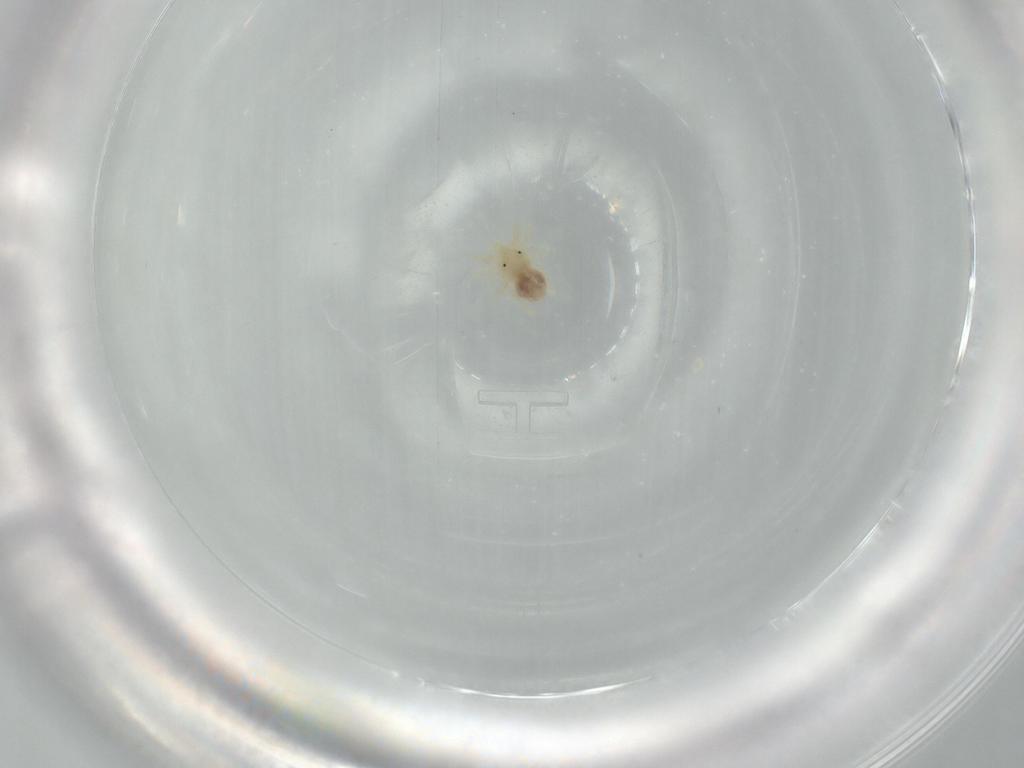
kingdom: Animalia
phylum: Arthropoda
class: Arachnida
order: Trombidiformes
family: Anystidae
